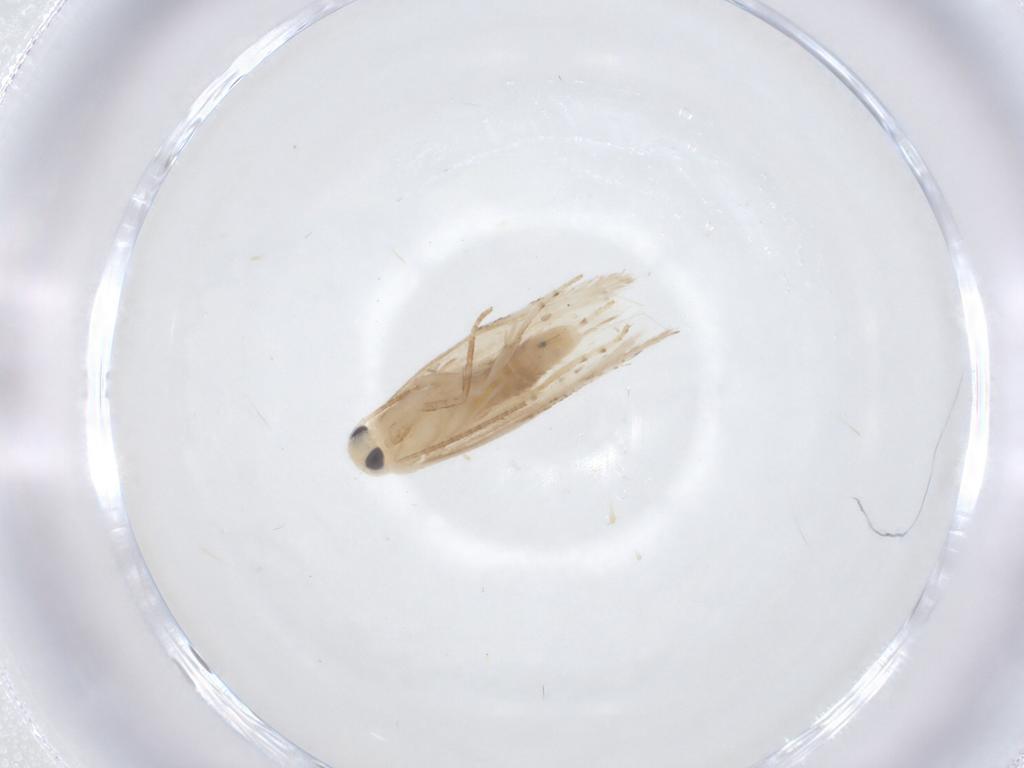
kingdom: Animalia
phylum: Arthropoda
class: Insecta
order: Lepidoptera
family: Lyonetiidae
